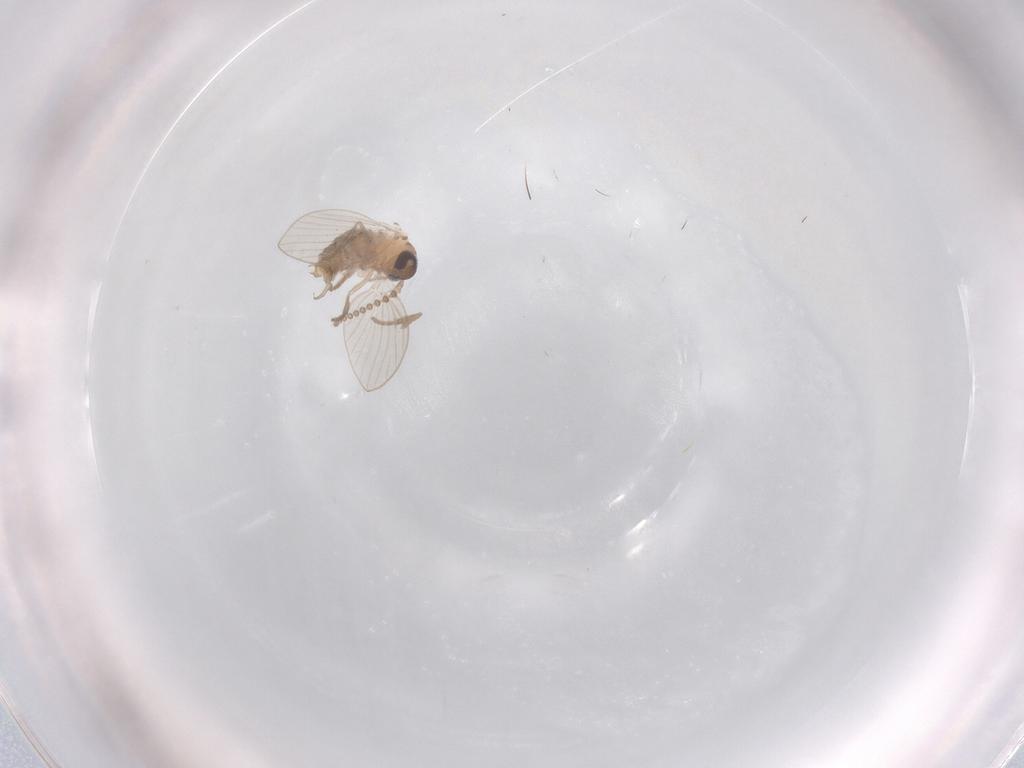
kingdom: Animalia
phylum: Arthropoda
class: Insecta
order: Diptera
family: Psychodidae
